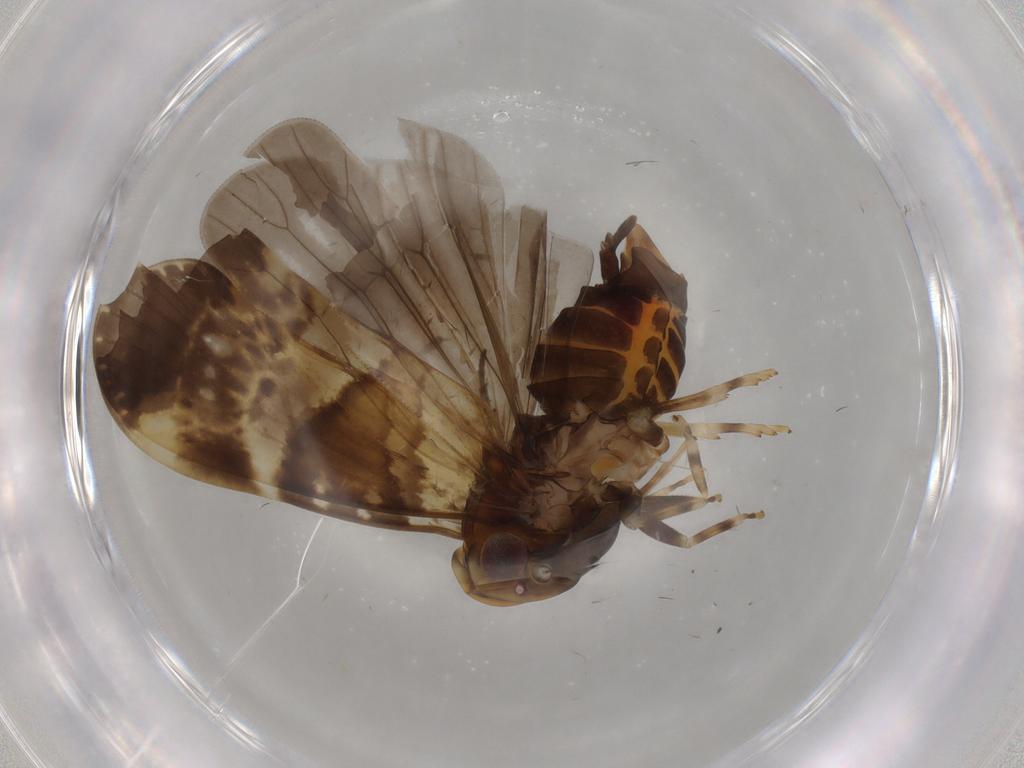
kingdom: Animalia
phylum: Arthropoda
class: Insecta
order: Hemiptera
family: Cixiidae
